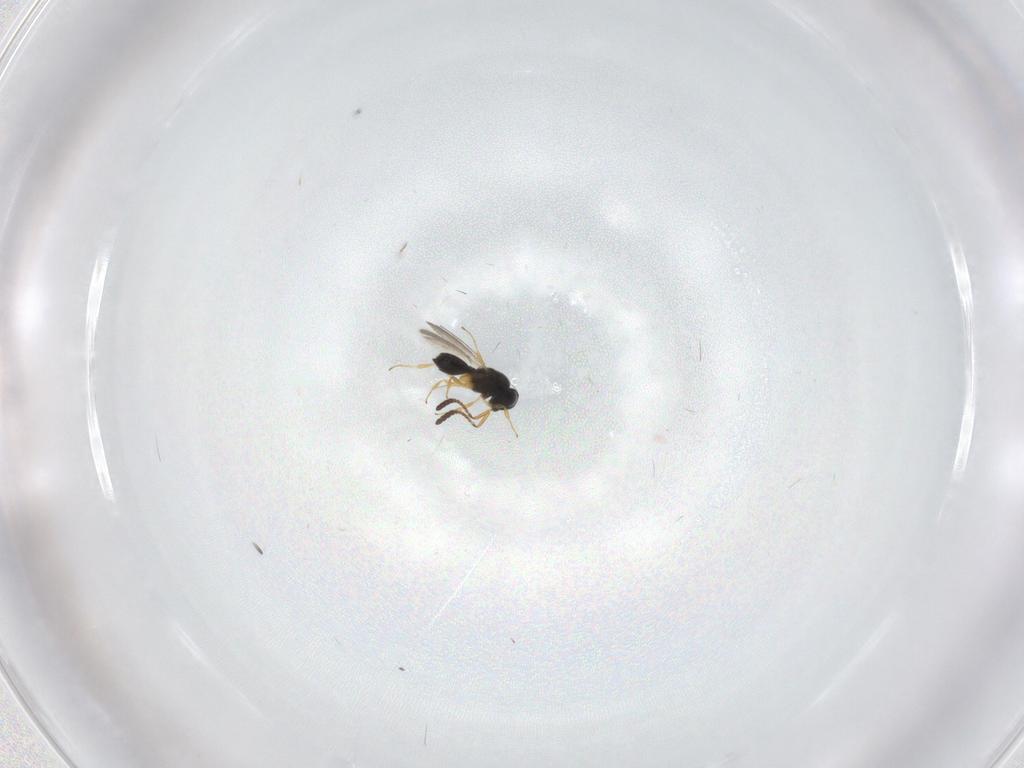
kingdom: Animalia
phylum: Arthropoda
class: Insecta
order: Hymenoptera
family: Scelionidae
